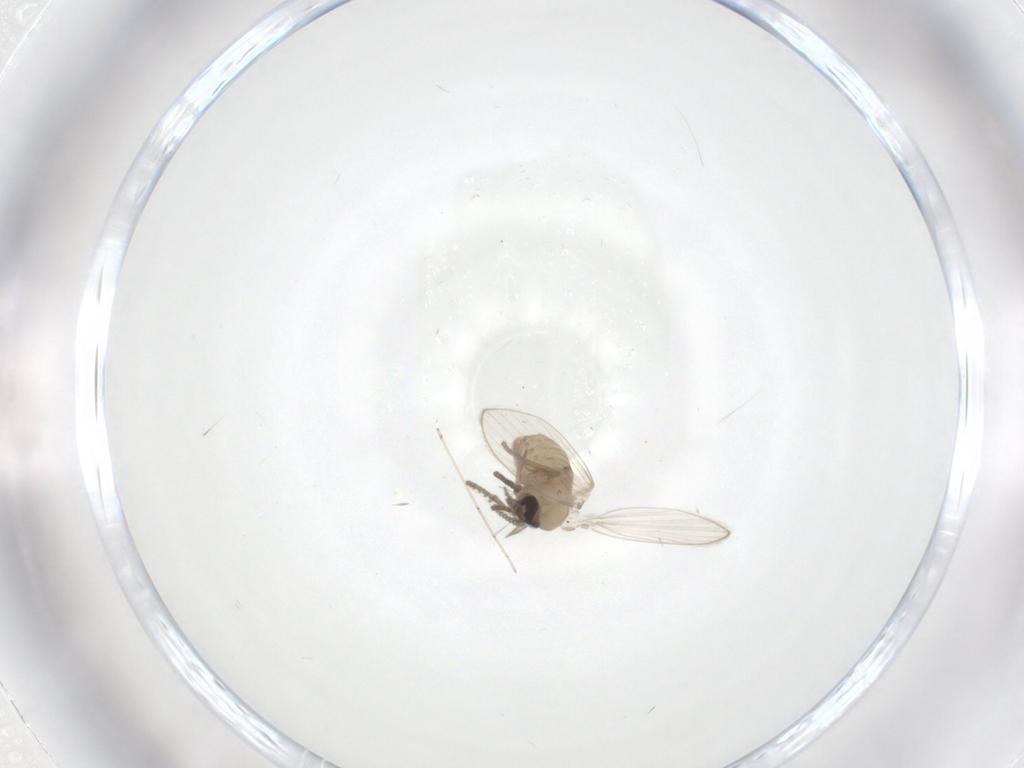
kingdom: Animalia
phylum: Arthropoda
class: Insecta
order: Diptera
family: Psychodidae
